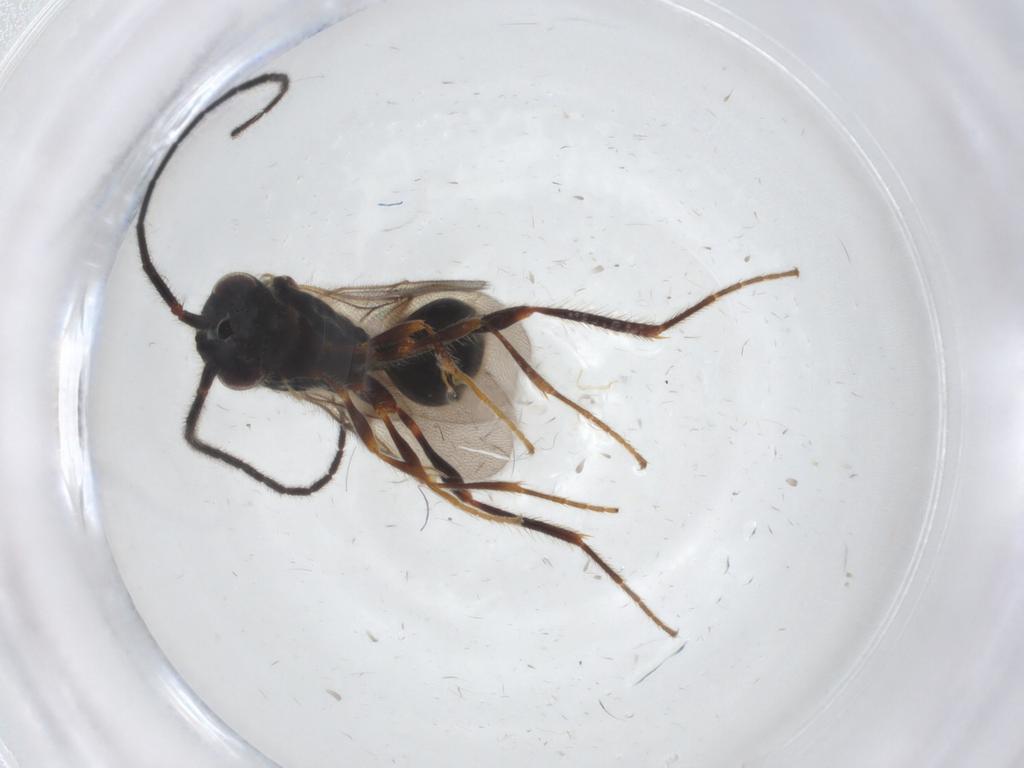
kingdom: Animalia
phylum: Arthropoda
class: Insecta
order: Hymenoptera
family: Diapriidae
